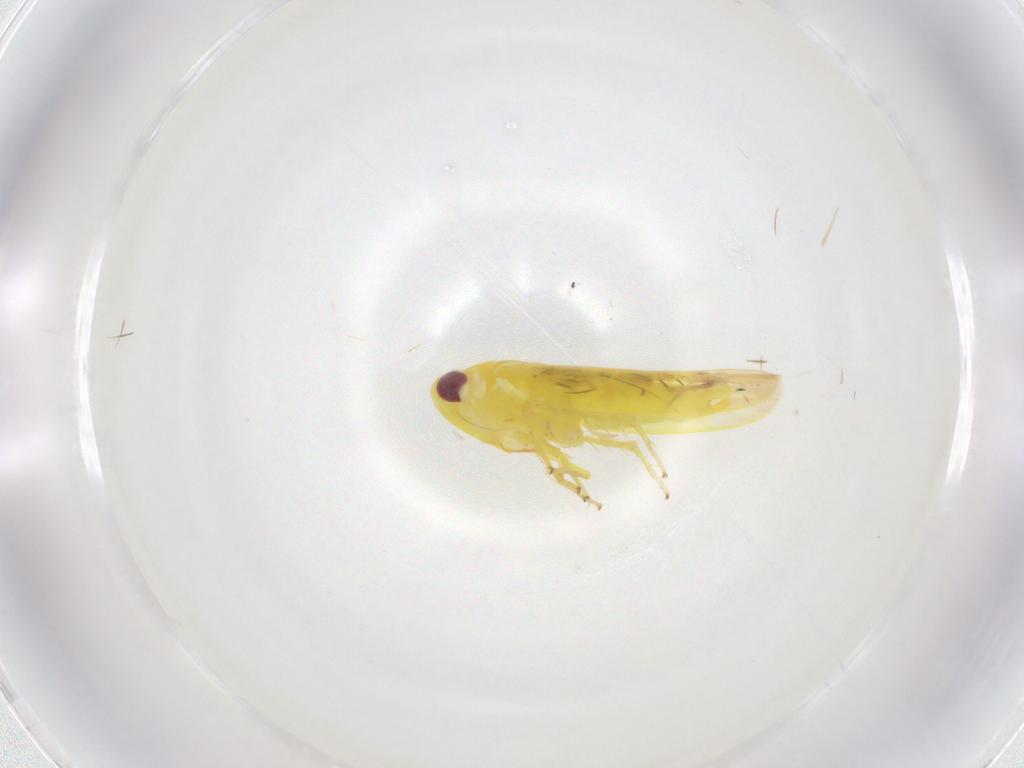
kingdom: Animalia
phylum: Arthropoda
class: Insecta
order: Hemiptera
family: Cicadellidae
